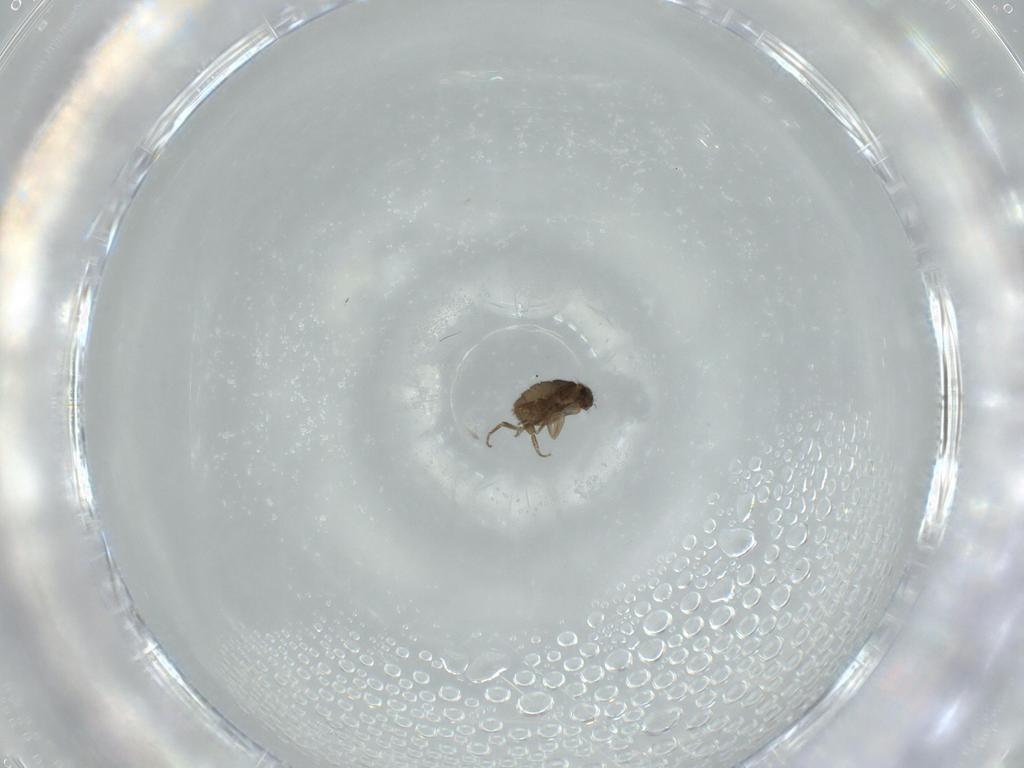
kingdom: Animalia
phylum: Arthropoda
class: Insecta
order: Diptera
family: Phoridae
